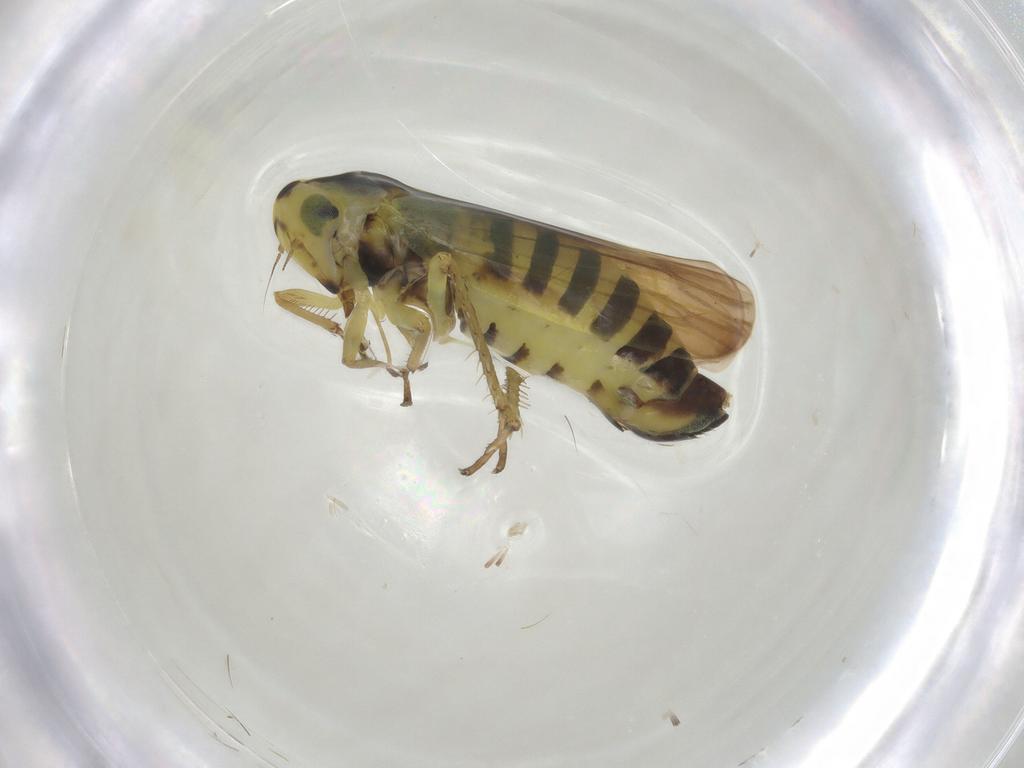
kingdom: Animalia
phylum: Arthropoda
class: Insecta
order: Hemiptera
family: Cicadellidae
